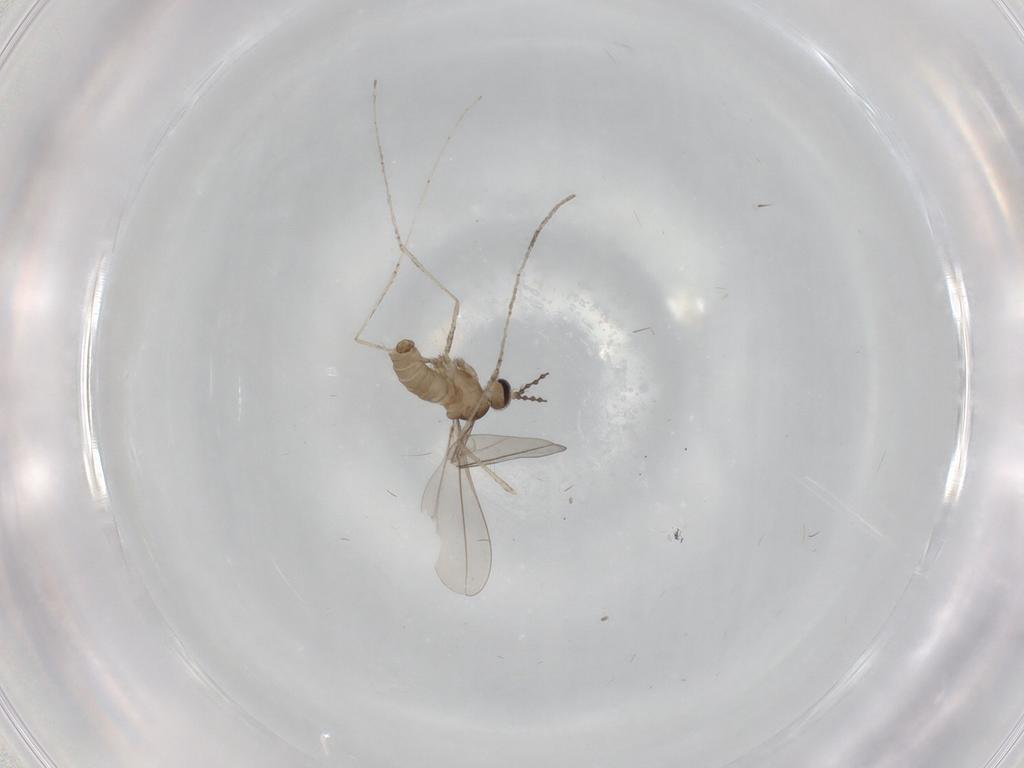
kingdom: Animalia
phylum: Arthropoda
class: Insecta
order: Diptera
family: Cecidomyiidae
